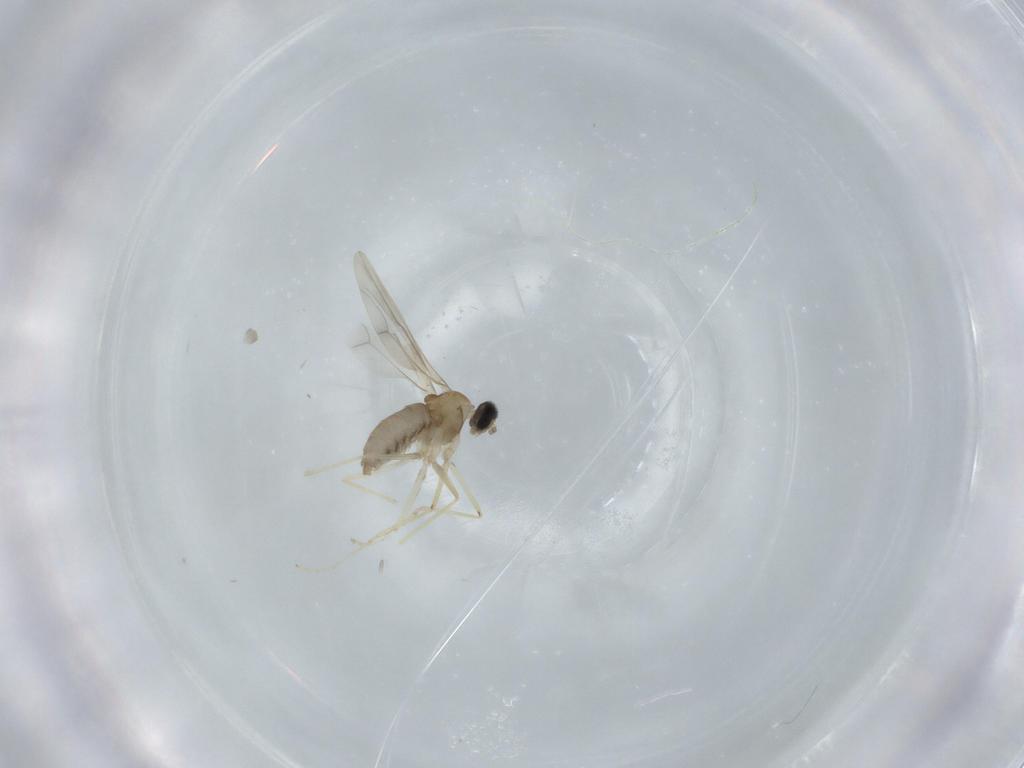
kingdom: Animalia
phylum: Arthropoda
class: Insecta
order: Diptera
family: Cecidomyiidae
